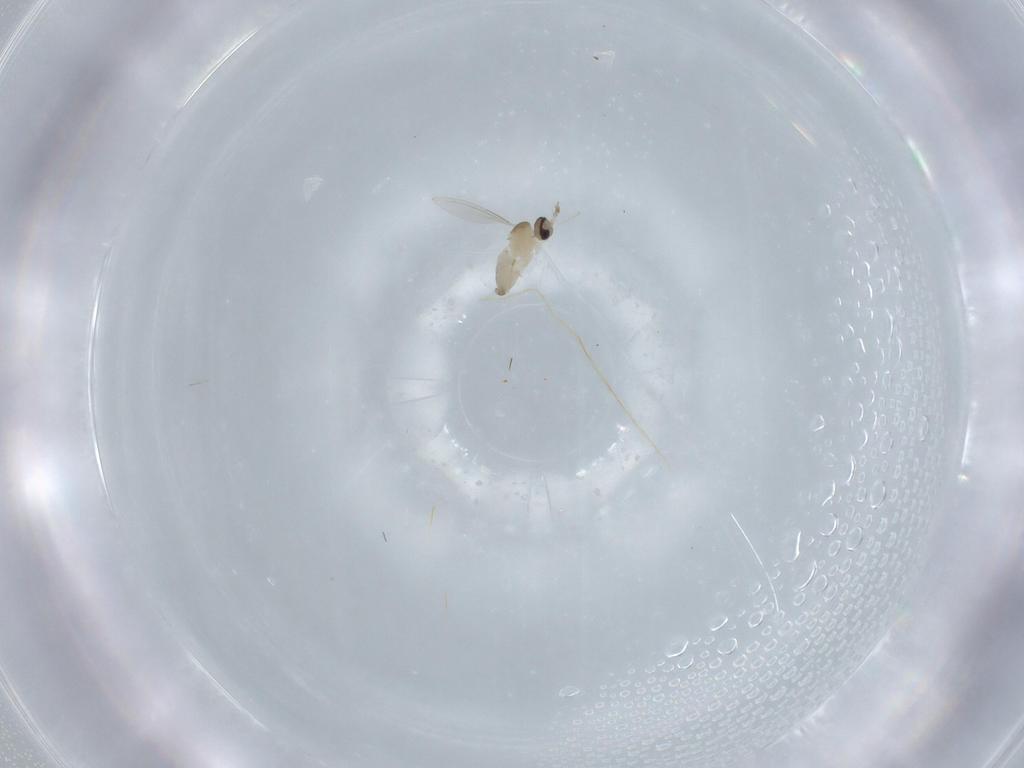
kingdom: Animalia
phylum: Arthropoda
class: Insecta
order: Diptera
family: Cecidomyiidae
